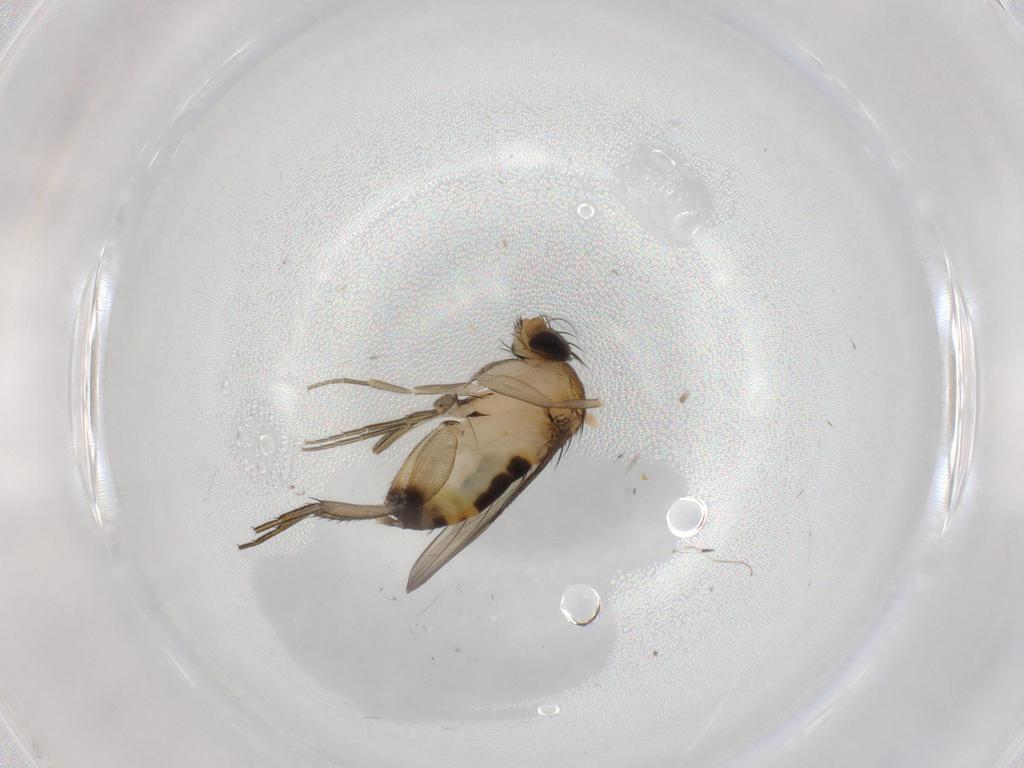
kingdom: Animalia
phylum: Arthropoda
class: Insecta
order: Diptera
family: Phoridae
